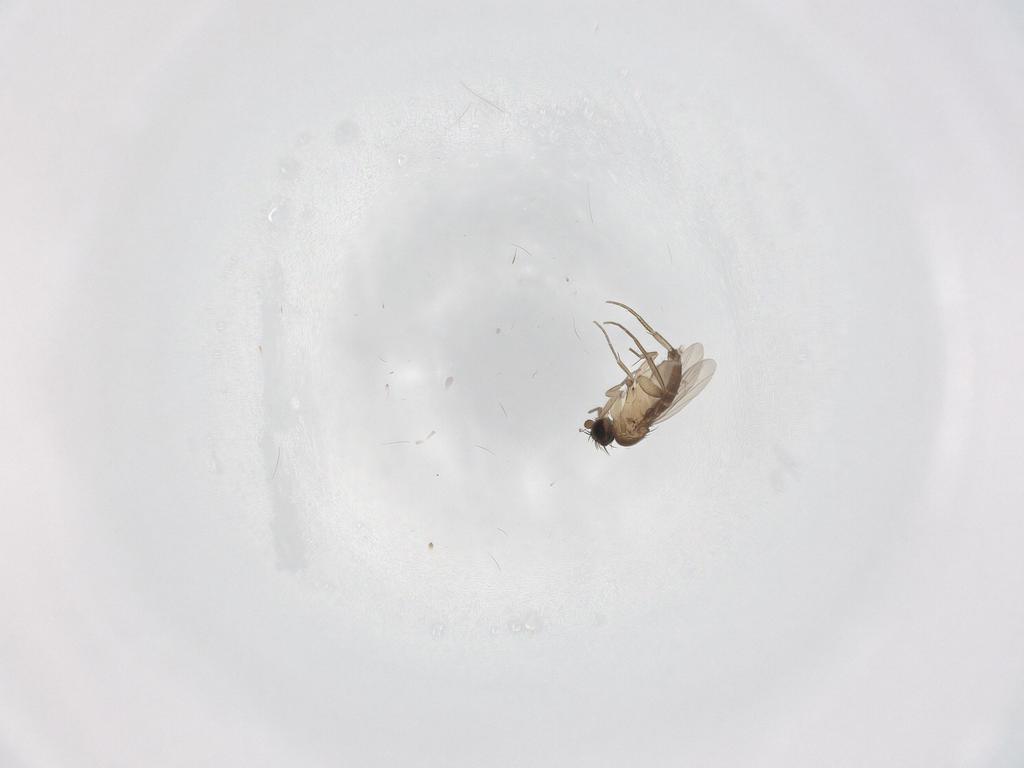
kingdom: Animalia
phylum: Arthropoda
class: Insecta
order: Diptera
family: Phoridae
